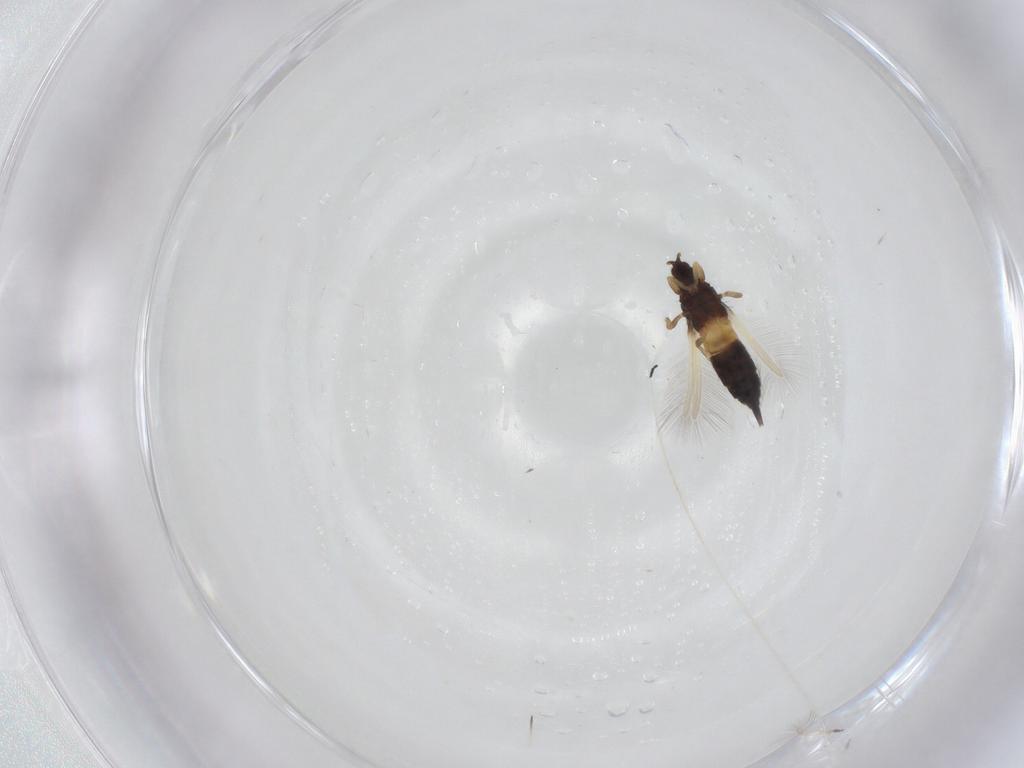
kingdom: Animalia
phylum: Arthropoda
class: Insecta
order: Thysanoptera
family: Phlaeothripidae
